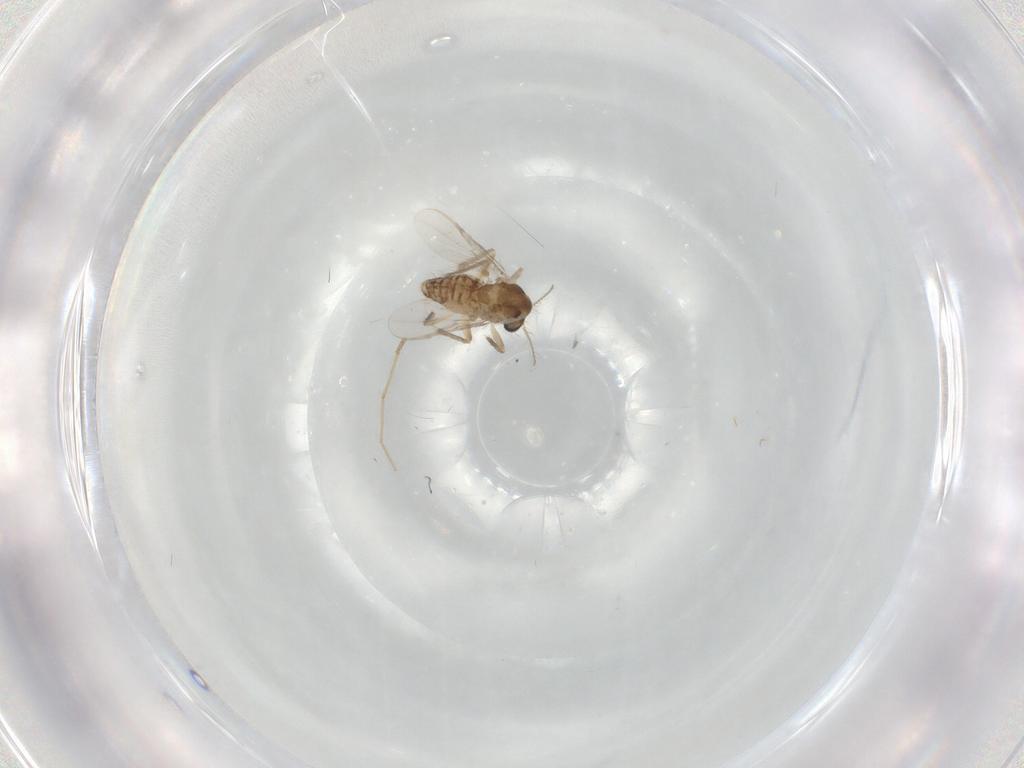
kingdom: Animalia
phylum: Arthropoda
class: Insecta
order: Diptera
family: Chironomidae
